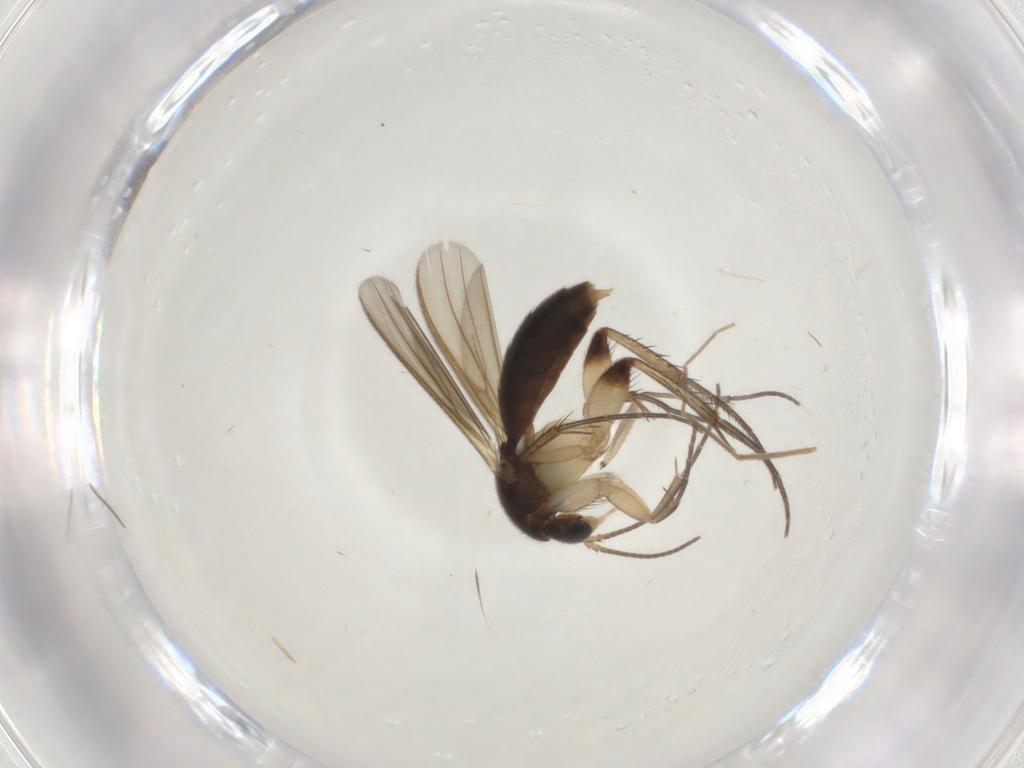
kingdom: Animalia
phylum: Arthropoda
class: Insecta
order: Diptera
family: Mycetophilidae
